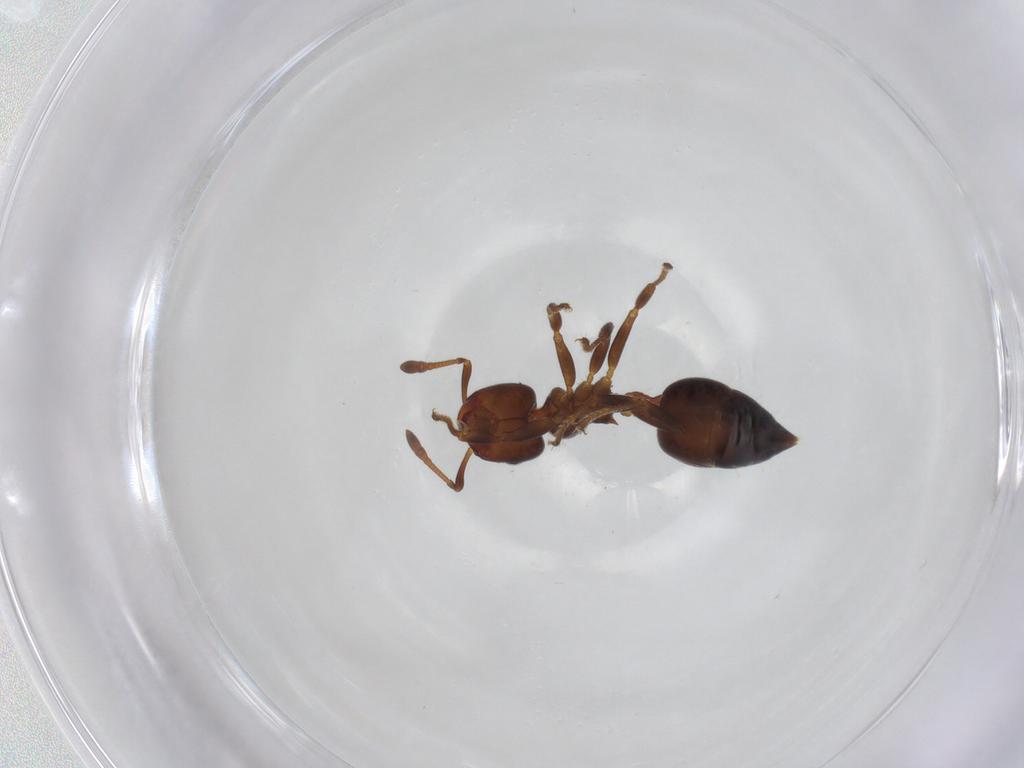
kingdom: Animalia
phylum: Arthropoda
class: Insecta
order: Hymenoptera
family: Formicidae
